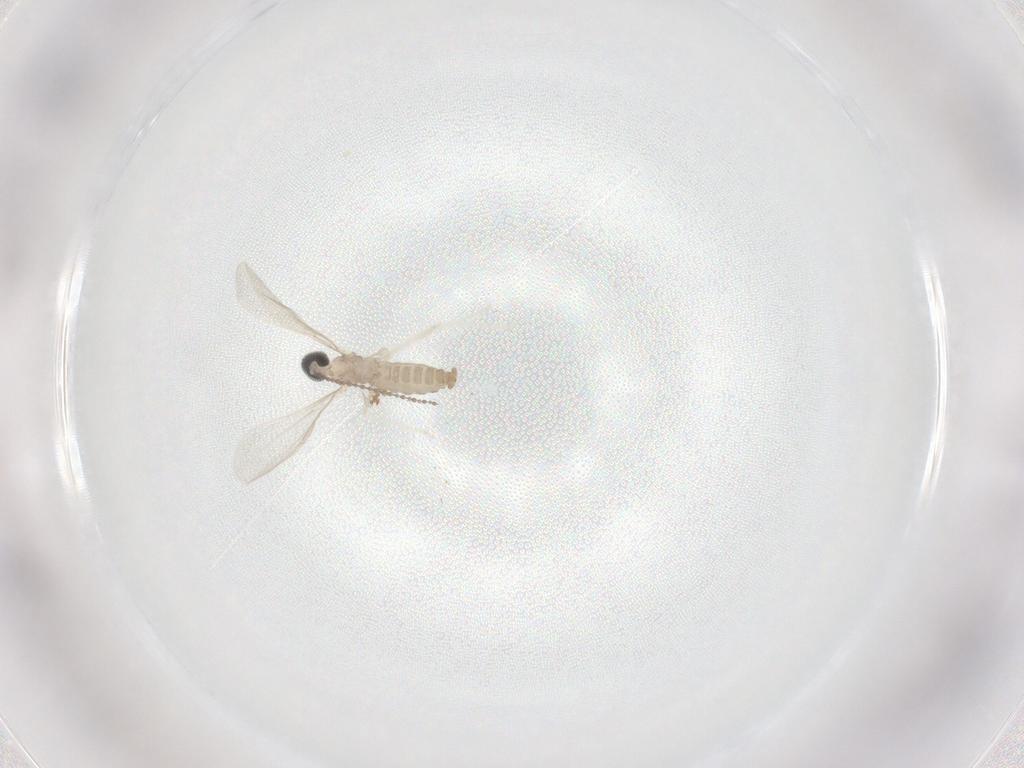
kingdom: Animalia
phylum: Arthropoda
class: Insecta
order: Diptera
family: Cecidomyiidae
